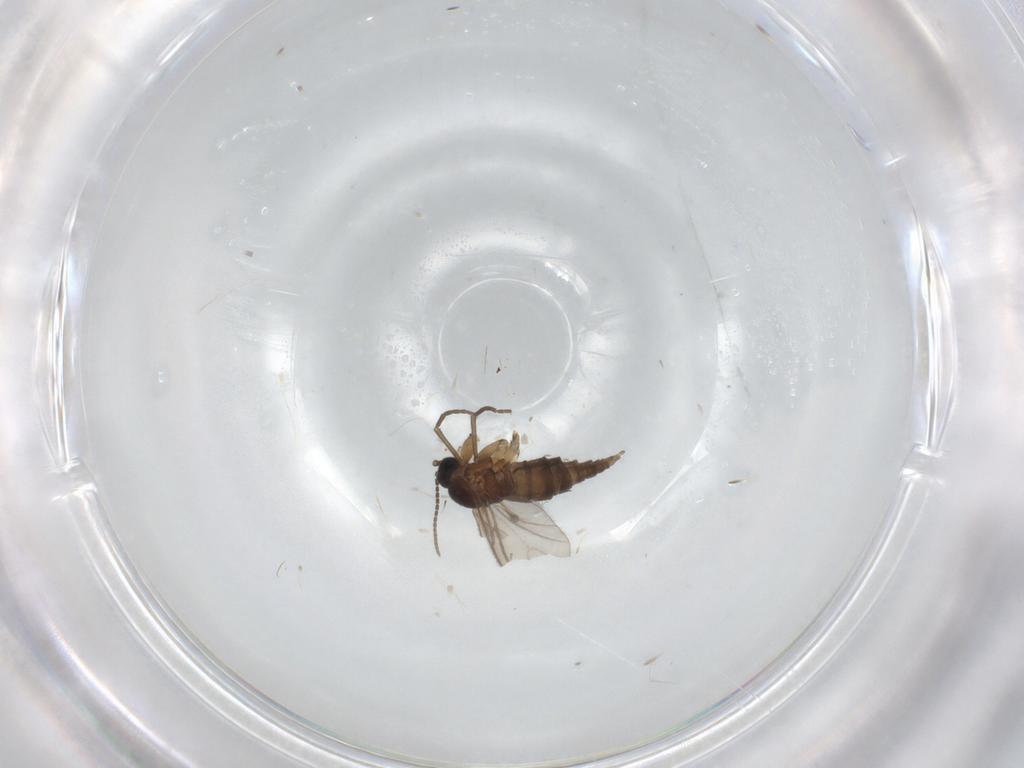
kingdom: Animalia
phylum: Arthropoda
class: Insecta
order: Diptera
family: Sciaridae
